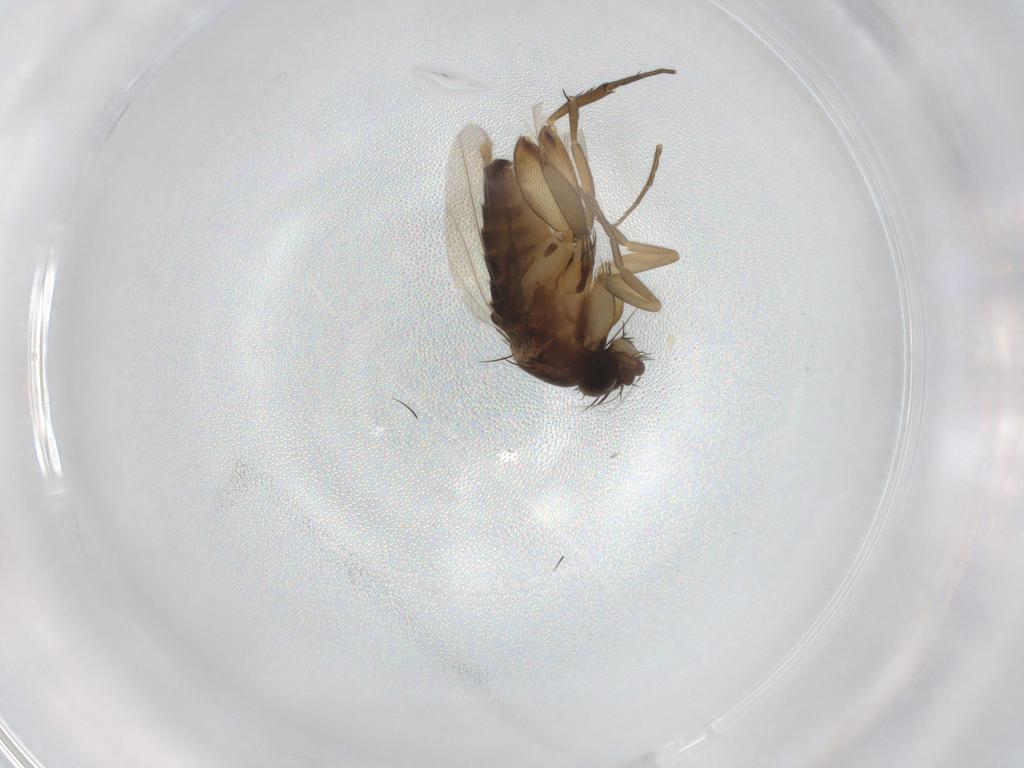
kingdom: Animalia
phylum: Arthropoda
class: Insecta
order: Diptera
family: Phoridae
